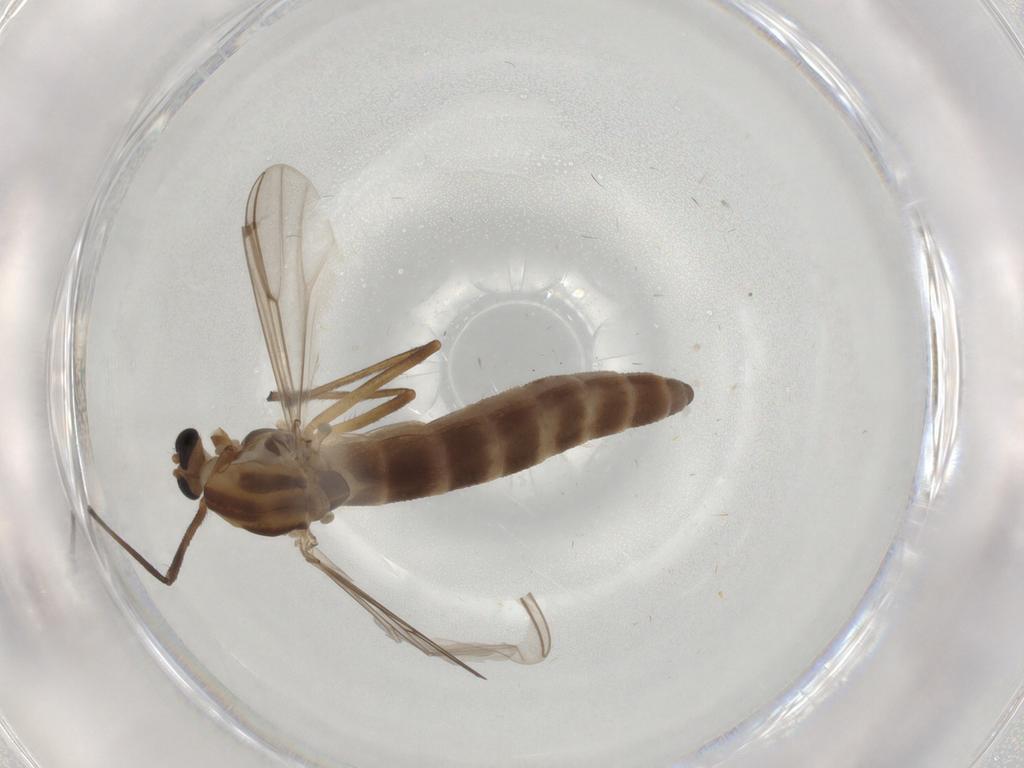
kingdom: Animalia
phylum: Arthropoda
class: Insecta
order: Diptera
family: Chironomidae
